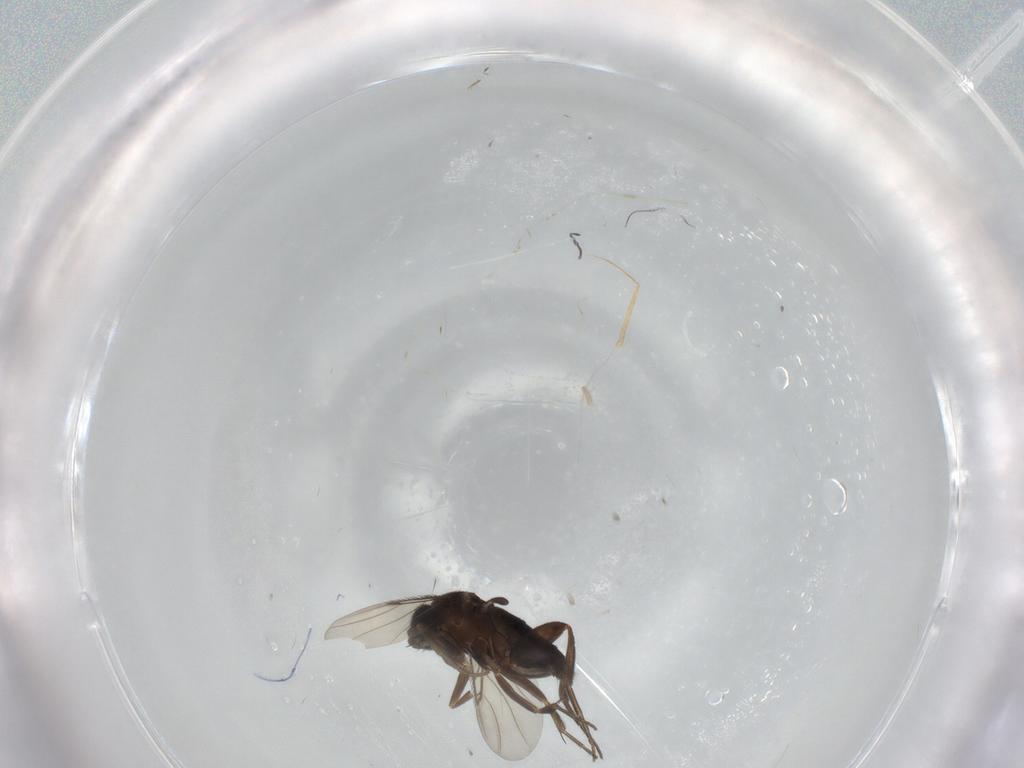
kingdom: Animalia
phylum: Arthropoda
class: Insecta
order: Diptera
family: Phoridae
